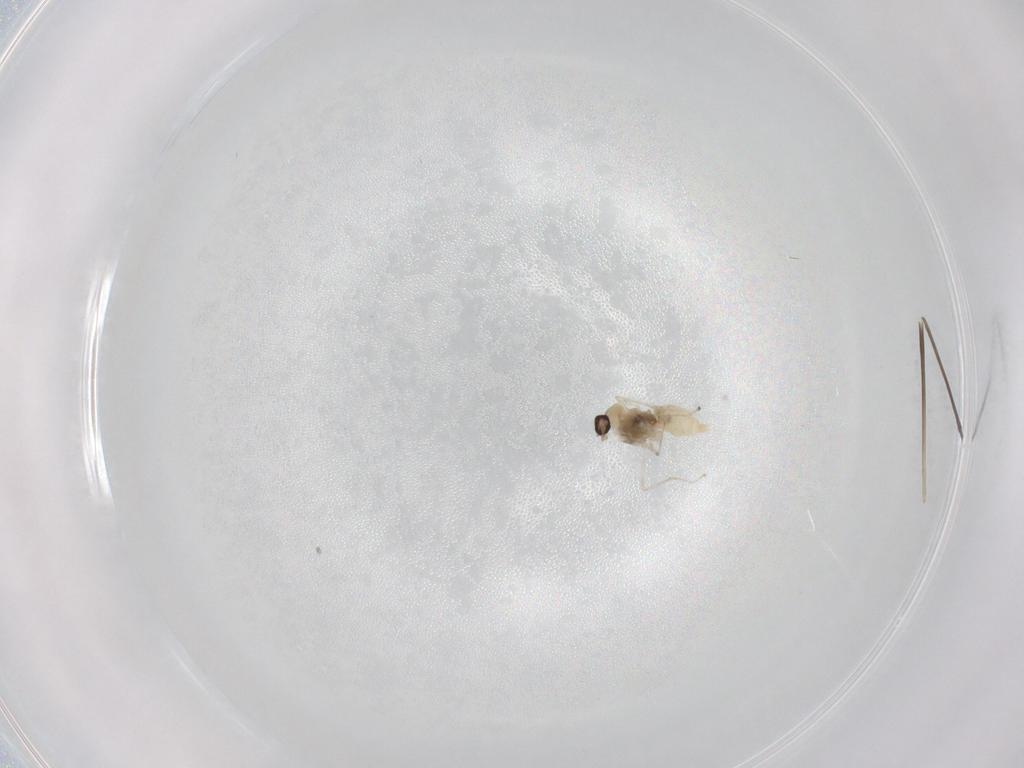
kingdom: Animalia
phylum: Arthropoda
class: Insecta
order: Diptera
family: Cecidomyiidae
